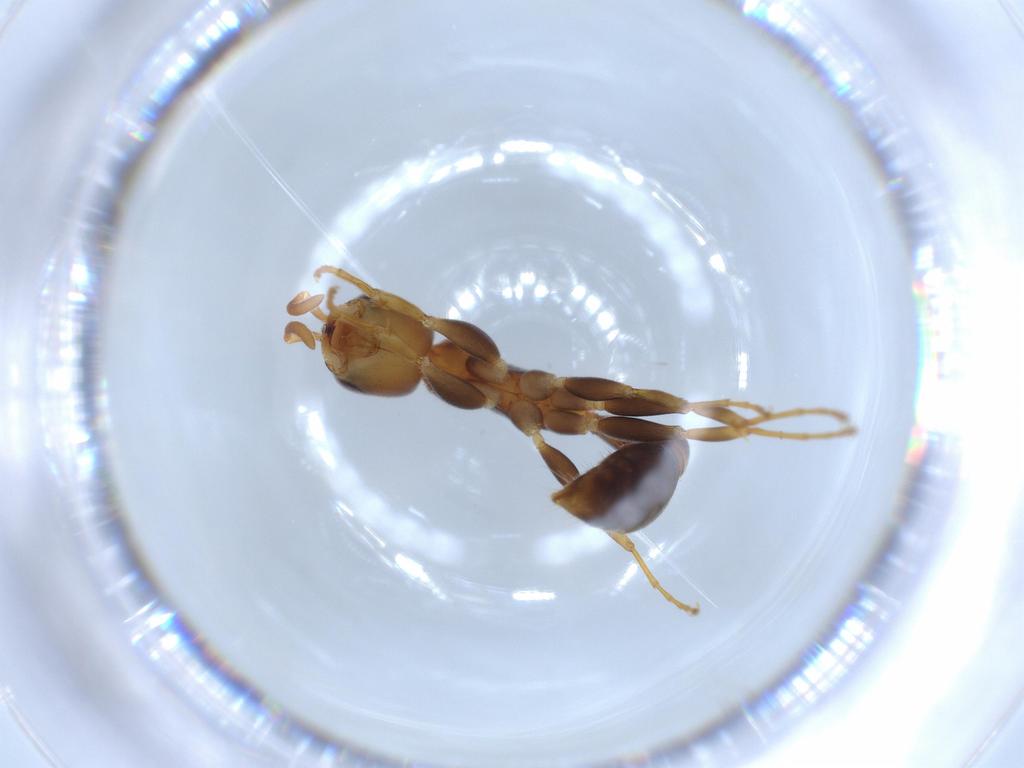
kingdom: Animalia
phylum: Arthropoda
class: Insecta
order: Hymenoptera
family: Formicidae
